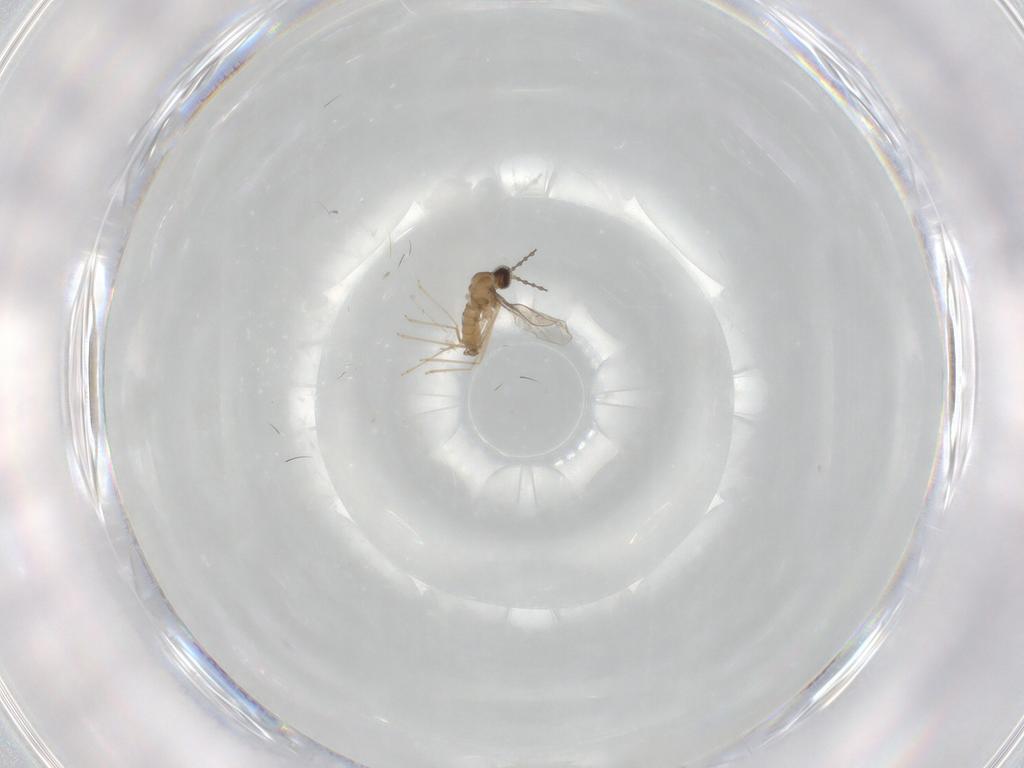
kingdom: Animalia
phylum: Arthropoda
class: Insecta
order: Diptera
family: Cecidomyiidae
